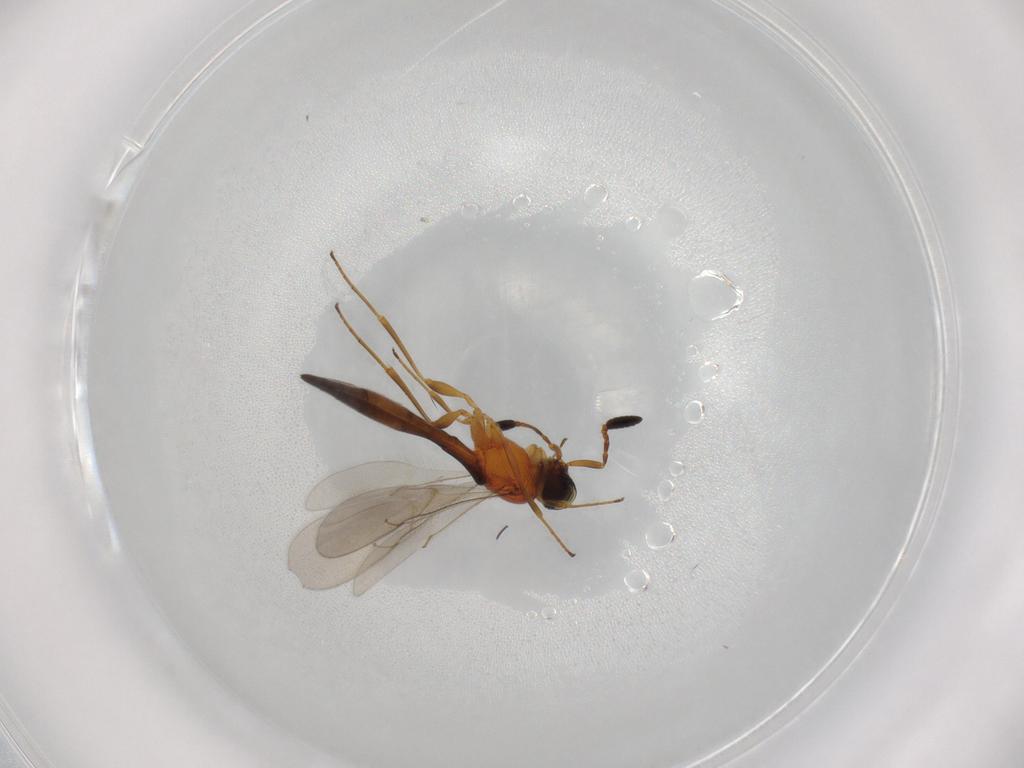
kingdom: Animalia
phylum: Arthropoda
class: Insecta
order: Hymenoptera
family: Scelionidae
